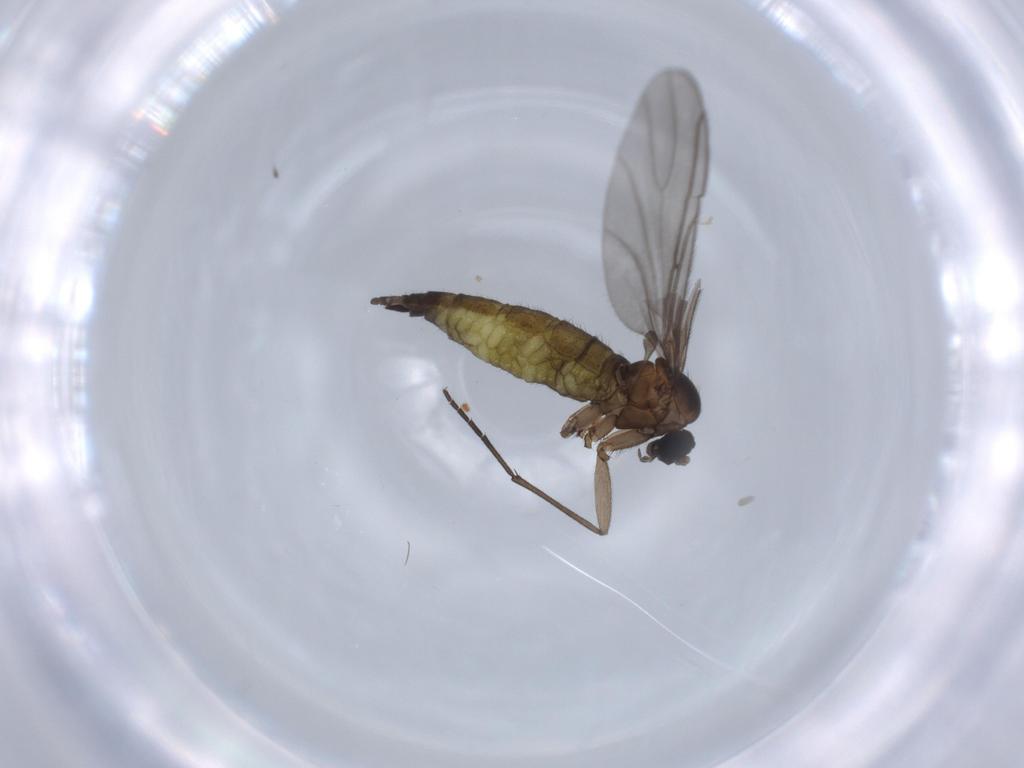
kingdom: Animalia
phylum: Arthropoda
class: Insecta
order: Diptera
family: Sciaridae
